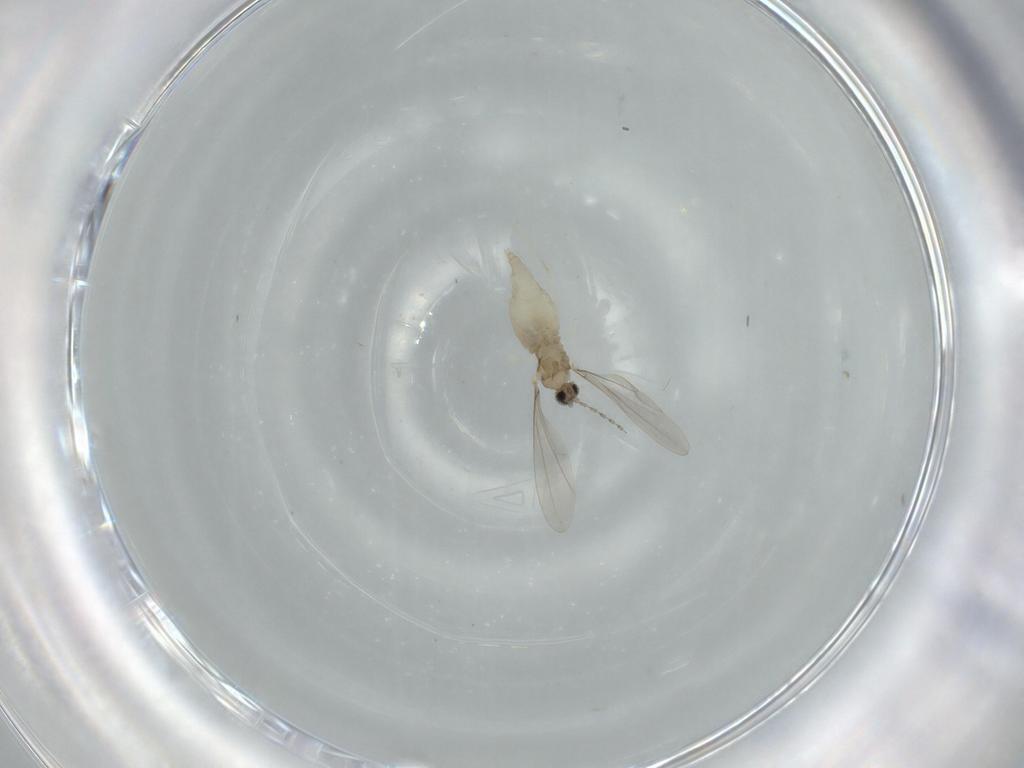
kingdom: Animalia
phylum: Arthropoda
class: Insecta
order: Diptera
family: Cecidomyiidae
